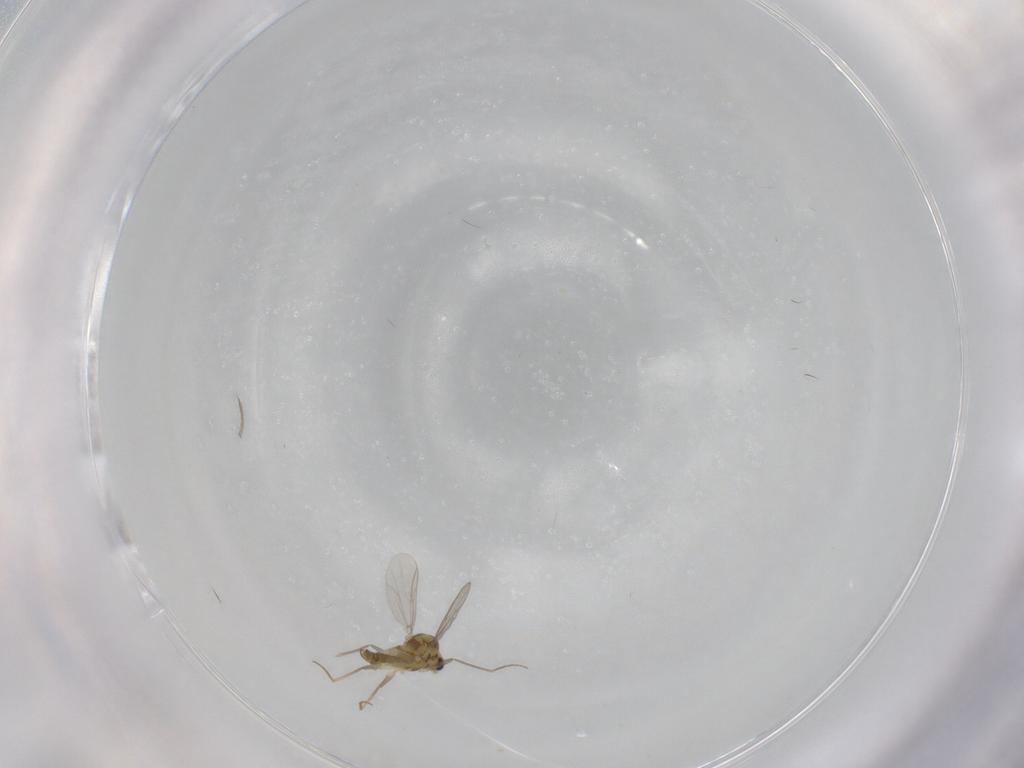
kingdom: Animalia
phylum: Arthropoda
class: Insecta
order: Diptera
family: Chironomidae
